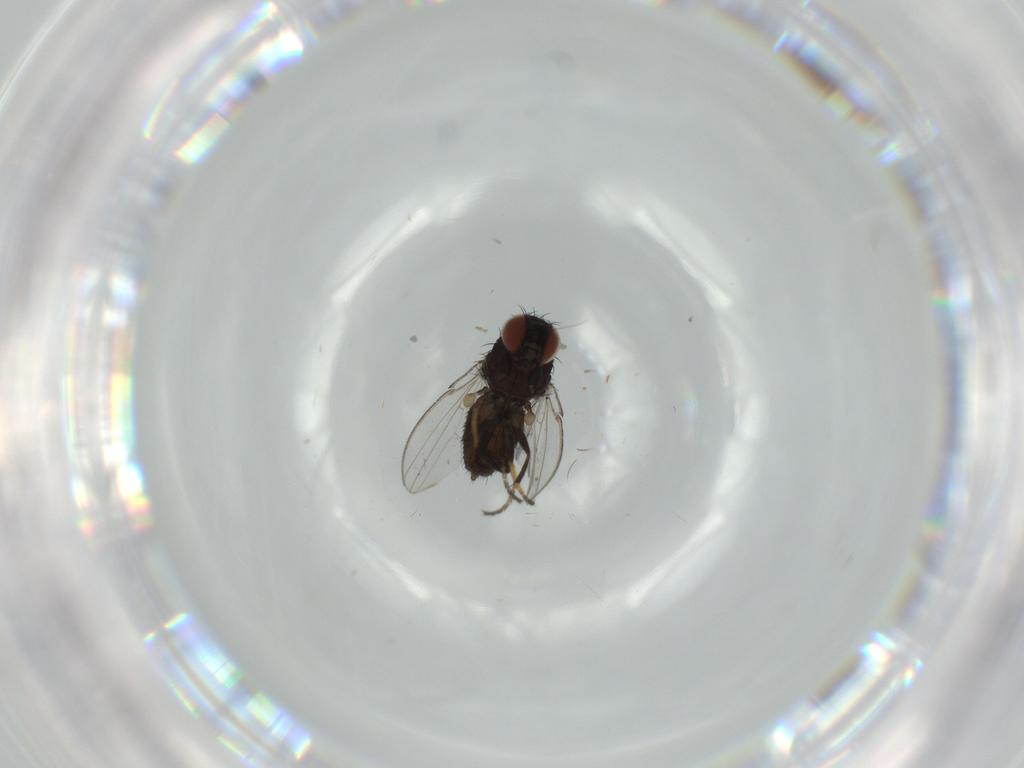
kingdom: Animalia
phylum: Arthropoda
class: Insecta
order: Diptera
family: Milichiidae
